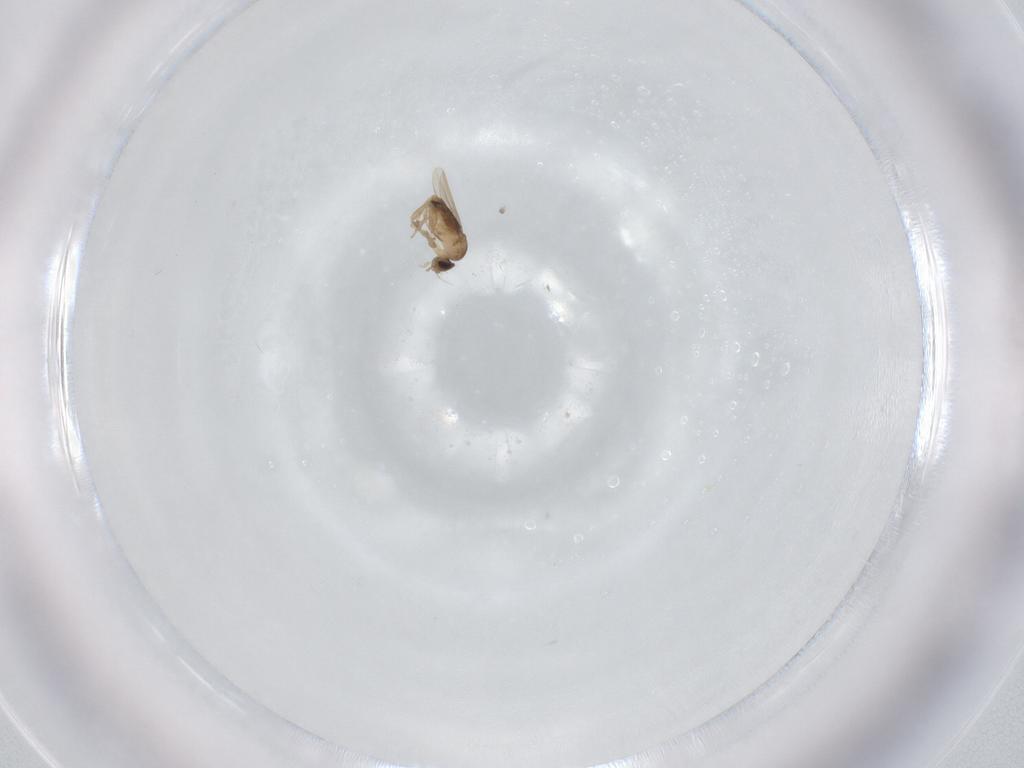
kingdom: Animalia
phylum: Arthropoda
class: Insecta
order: Diptera
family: Phoridae
